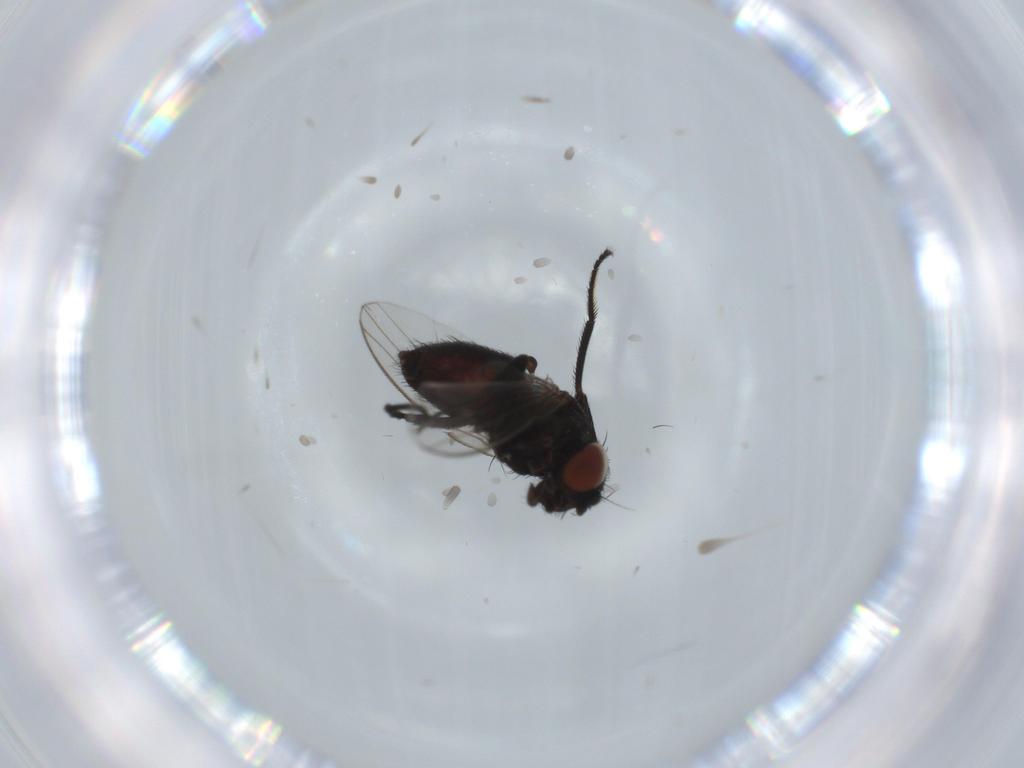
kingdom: Animalia
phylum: Arthropoda
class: Insecta
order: Diptera
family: Milichiidae
